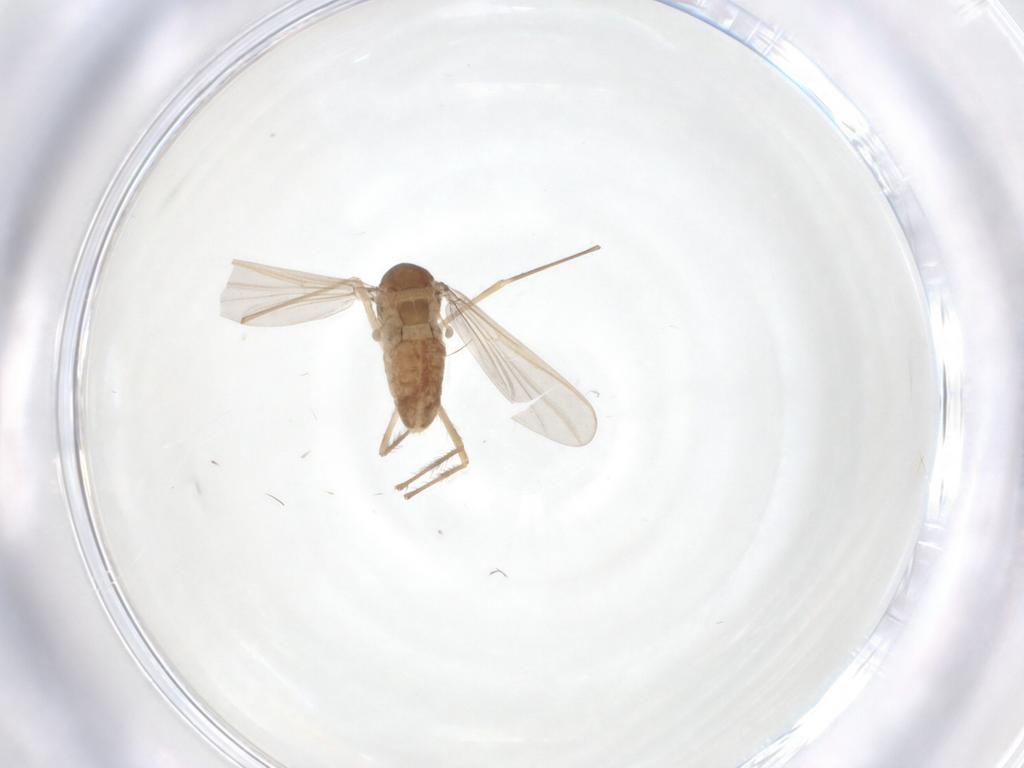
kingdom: Animalia
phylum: Arthropoda
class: Insecta
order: Diptera
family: Chironomidae
